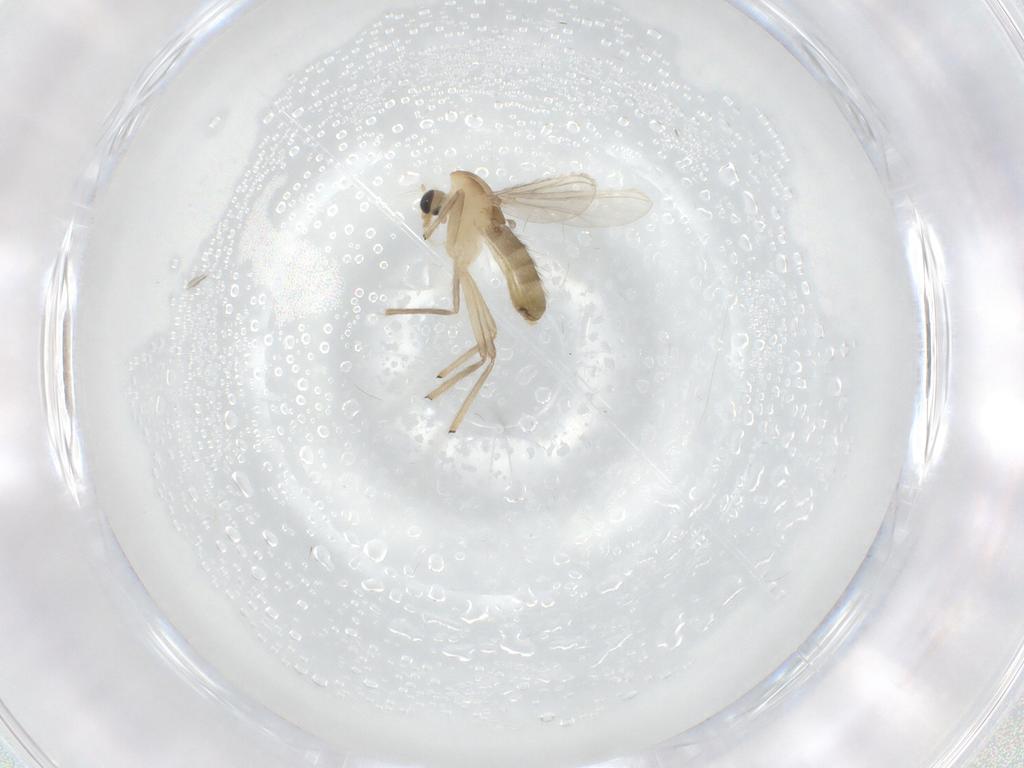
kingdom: Animalia
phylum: Arthropoda
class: Insecta
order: Diptera
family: Chironomidae
